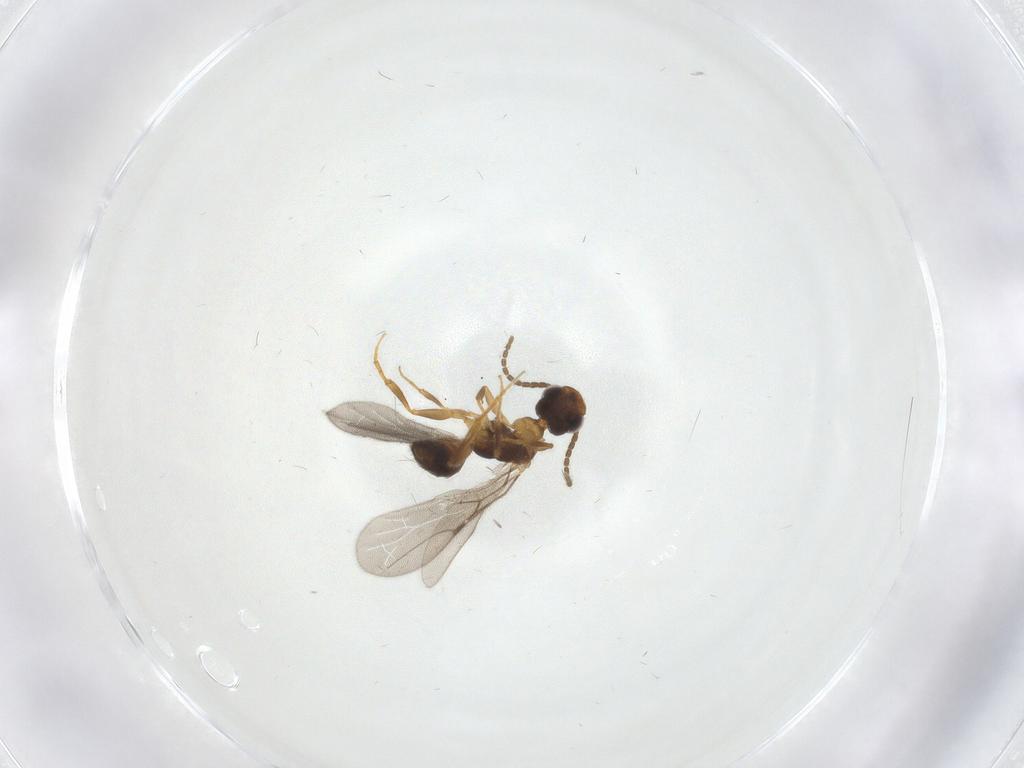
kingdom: Animalia
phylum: Arthropoda
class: Insecta
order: Hymenoptera
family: Bethylidae
